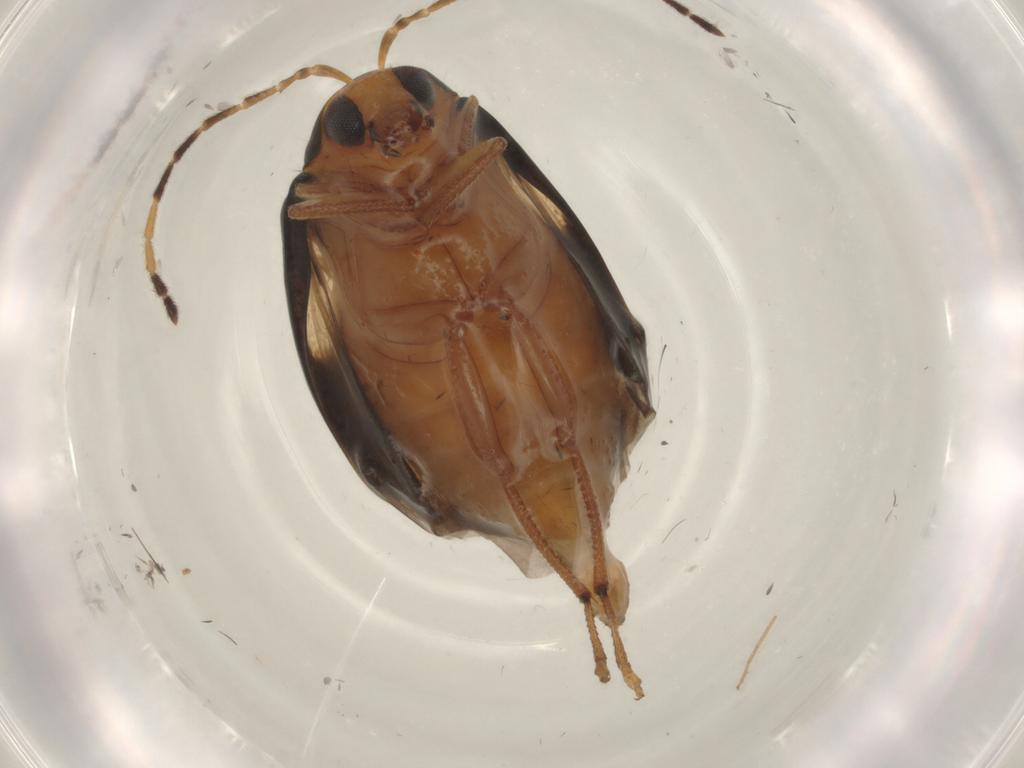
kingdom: Animalia
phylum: Arthropoda
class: Insecta
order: Coleoptera
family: Chrysomelidae
